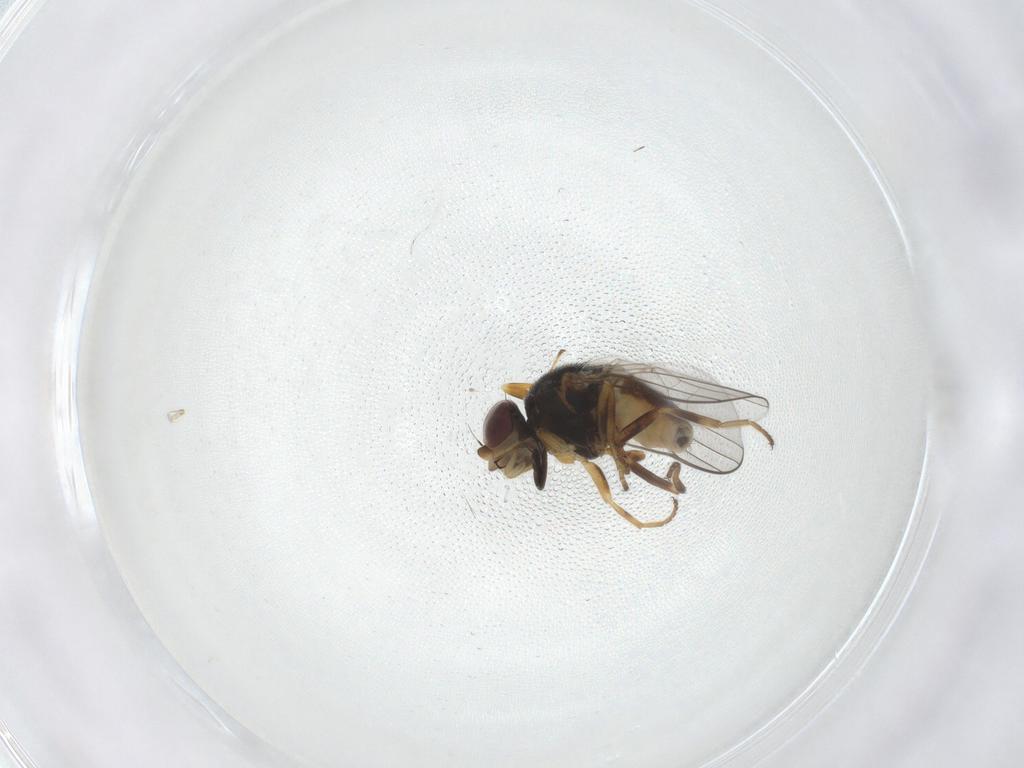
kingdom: Animalia
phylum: Arthropoda
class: Insecta
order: Diptera
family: Chloropidae
